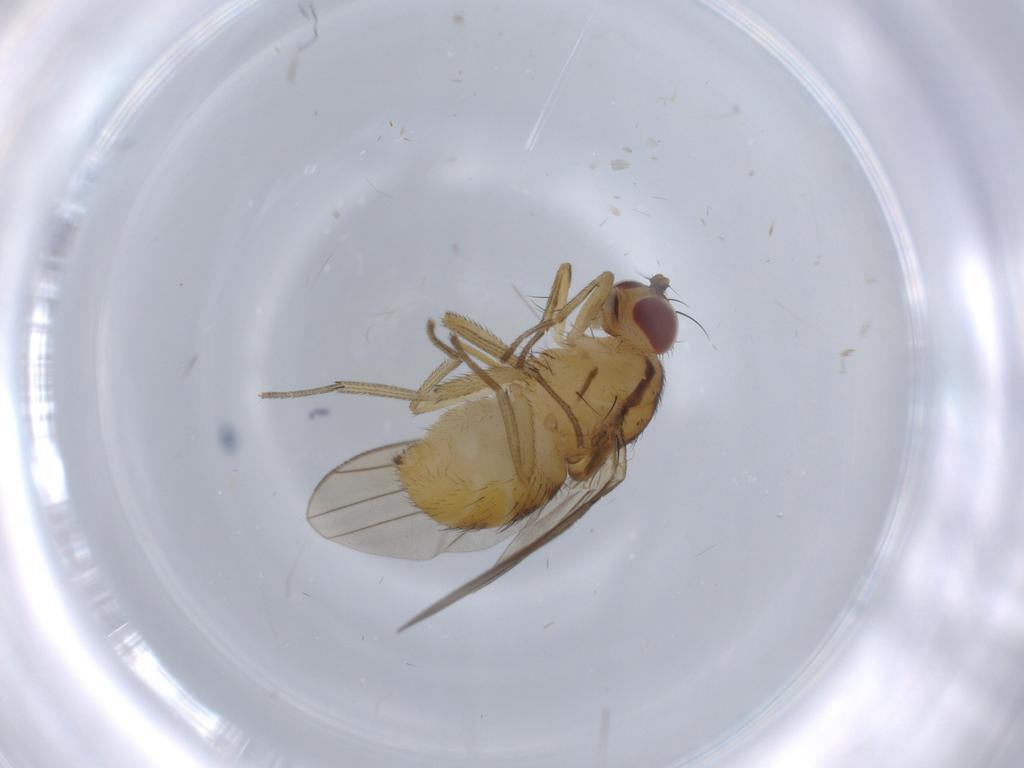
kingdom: Animalia
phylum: Arthropoda
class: Insecta
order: Diptera
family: Lauxaniidae
